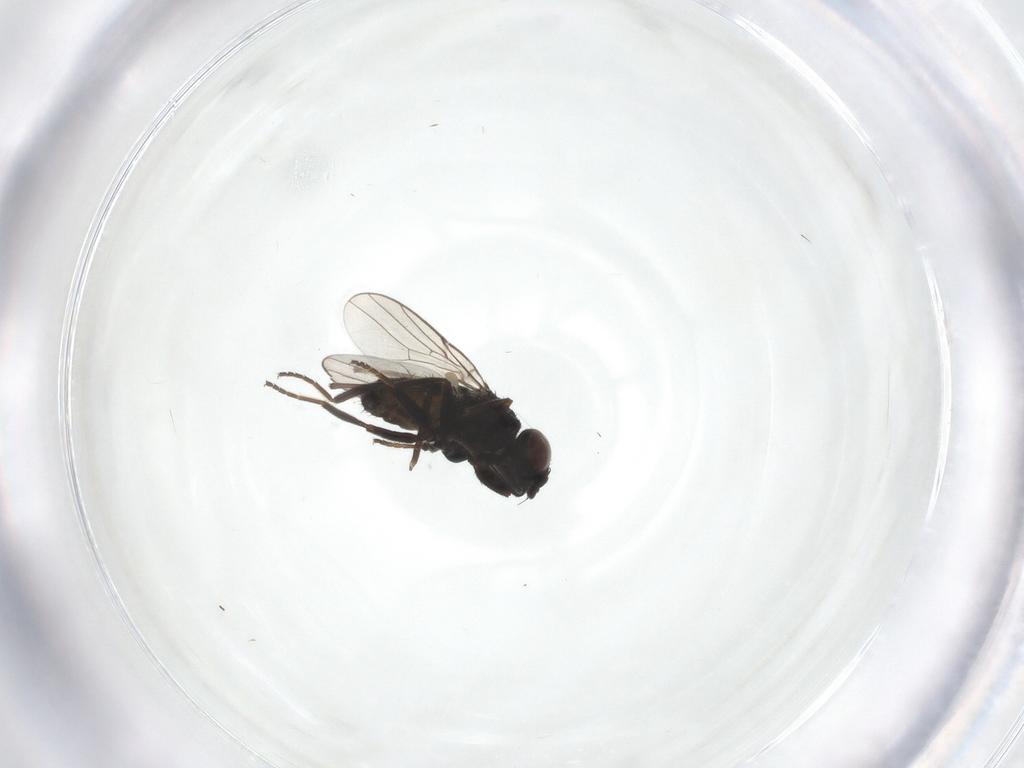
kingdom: Animalia
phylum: Arthropoda
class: Insecta
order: Diptera
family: Chloropidae
